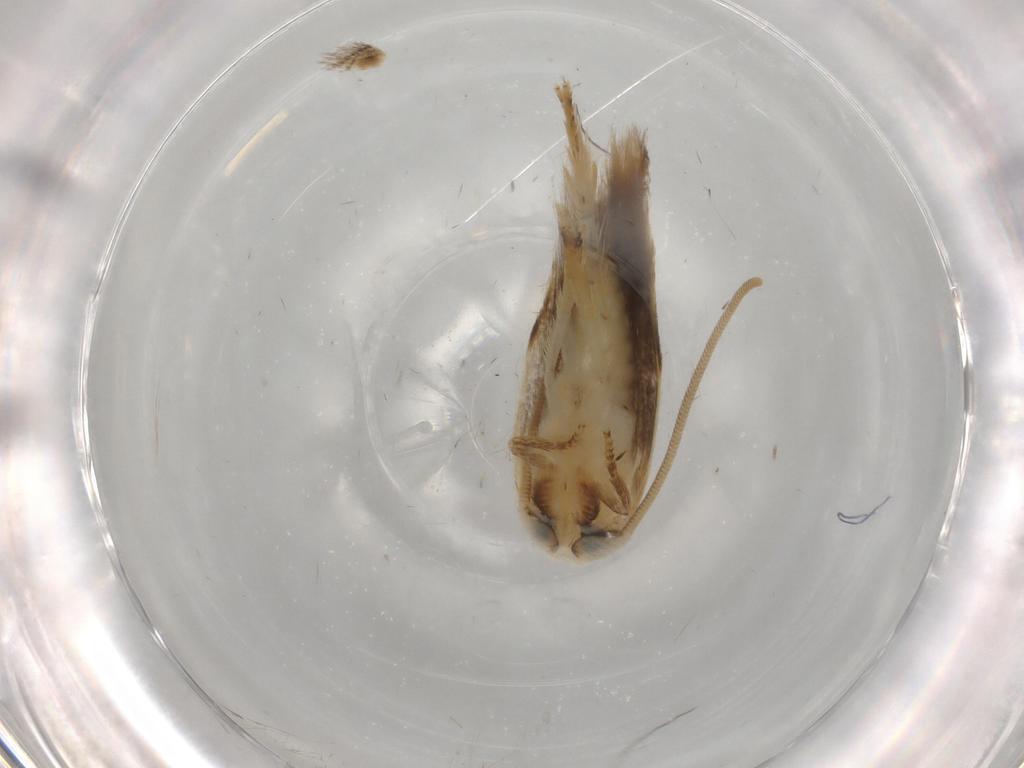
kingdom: Animalia
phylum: Arthropoda
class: Insecta
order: Lepidoptera
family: Opostegidae
